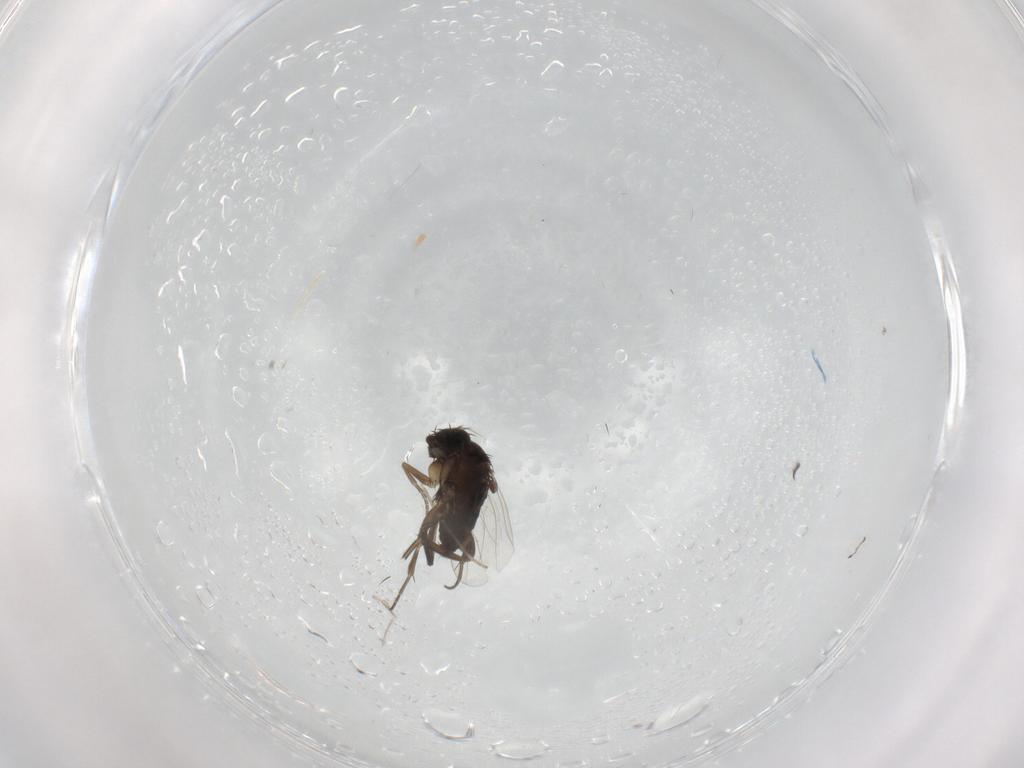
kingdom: Animalia
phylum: Arthropoda
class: Insecta
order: Diptera
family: Phoridae
